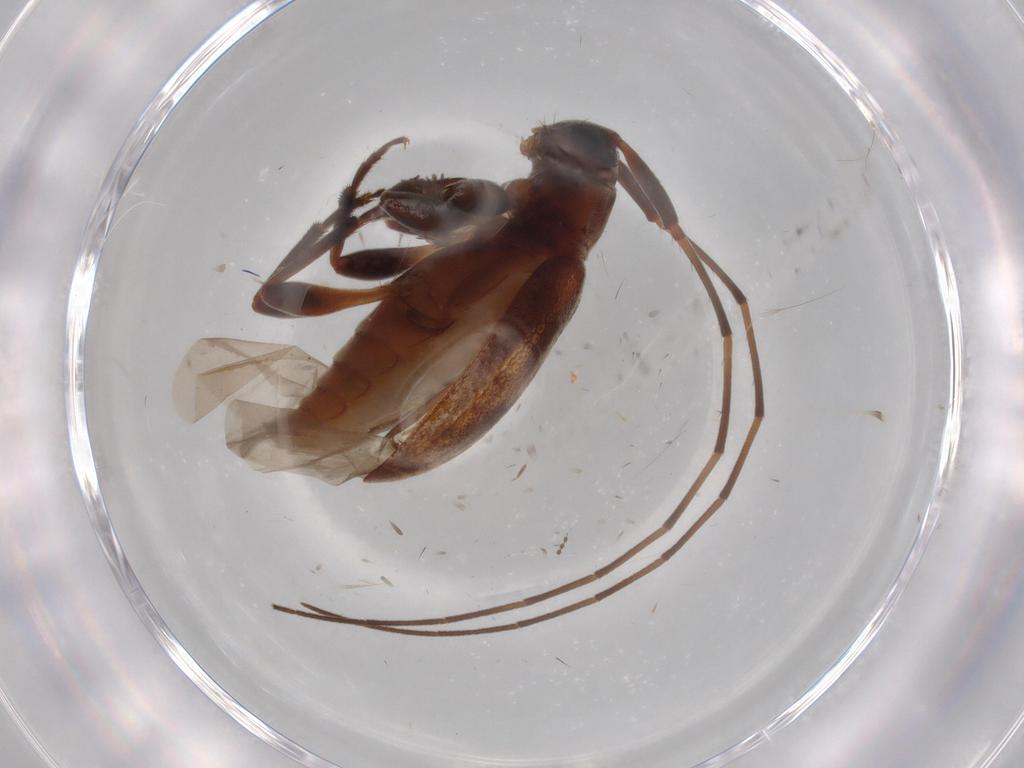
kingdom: Animalia
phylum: Arthropoda
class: Insecta
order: Coleoptera
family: Cerambycidae
